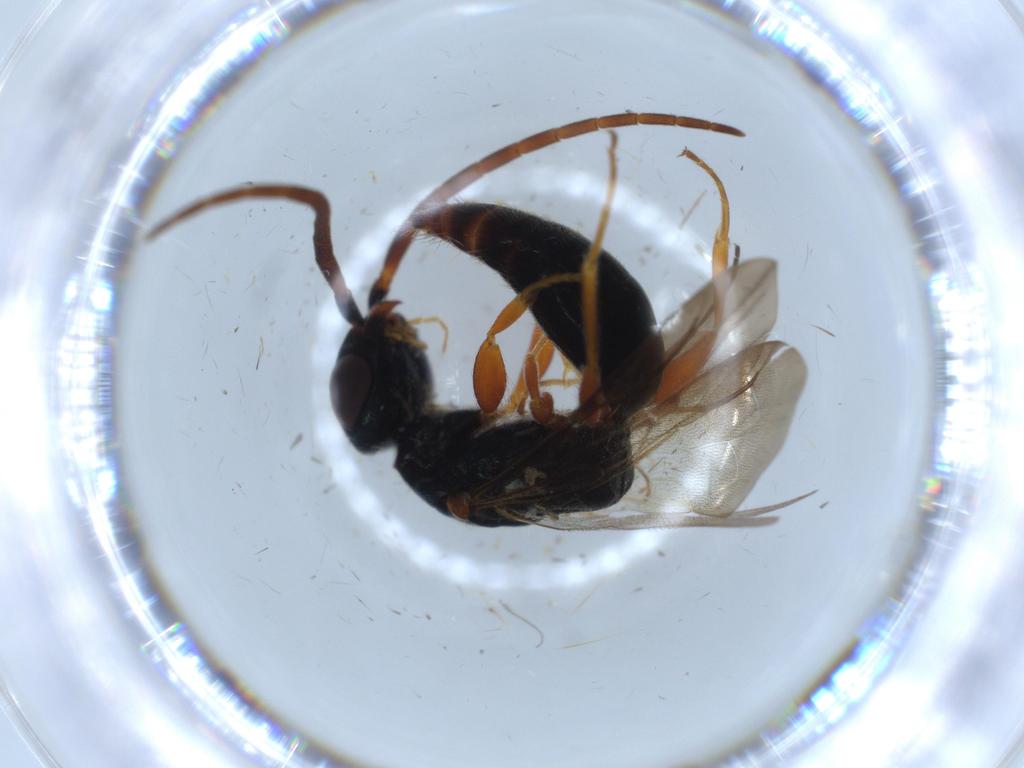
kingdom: Animalia
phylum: Arthropoda
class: Insecta
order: Hymenoptera
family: Bethylidae
